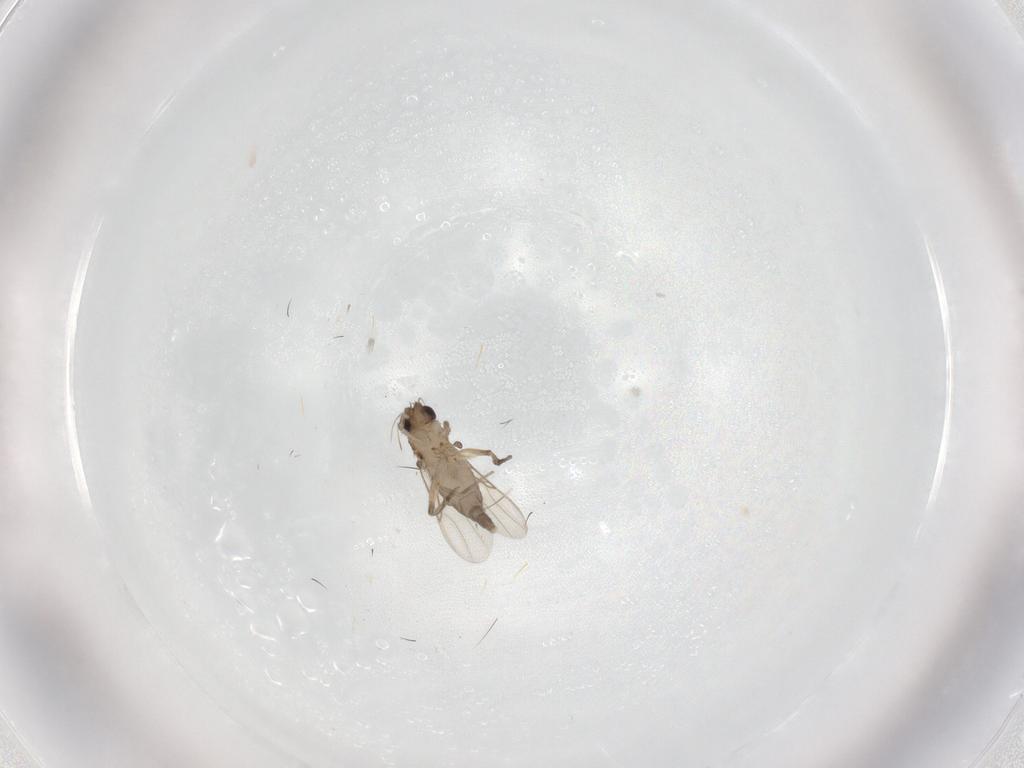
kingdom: Animalia
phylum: Arthropoda
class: Insecta
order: Diptera
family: Phoridae
